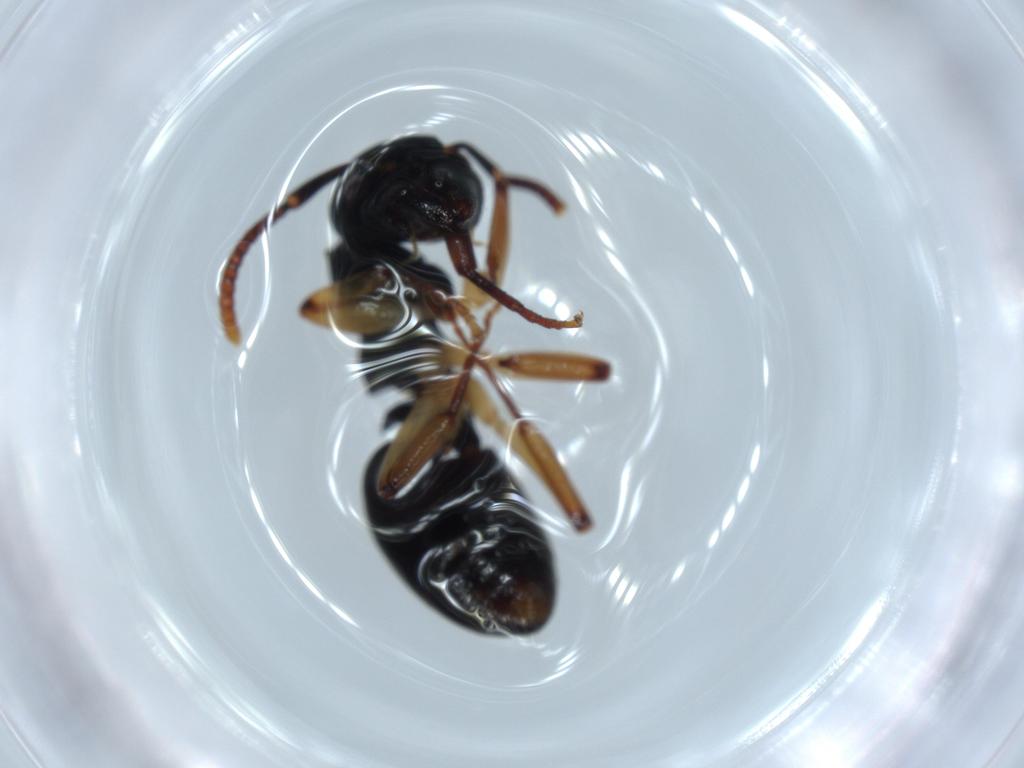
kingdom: Animalia
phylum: Arthropoda
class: Insecta
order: Hymenoptera
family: Formicidae
